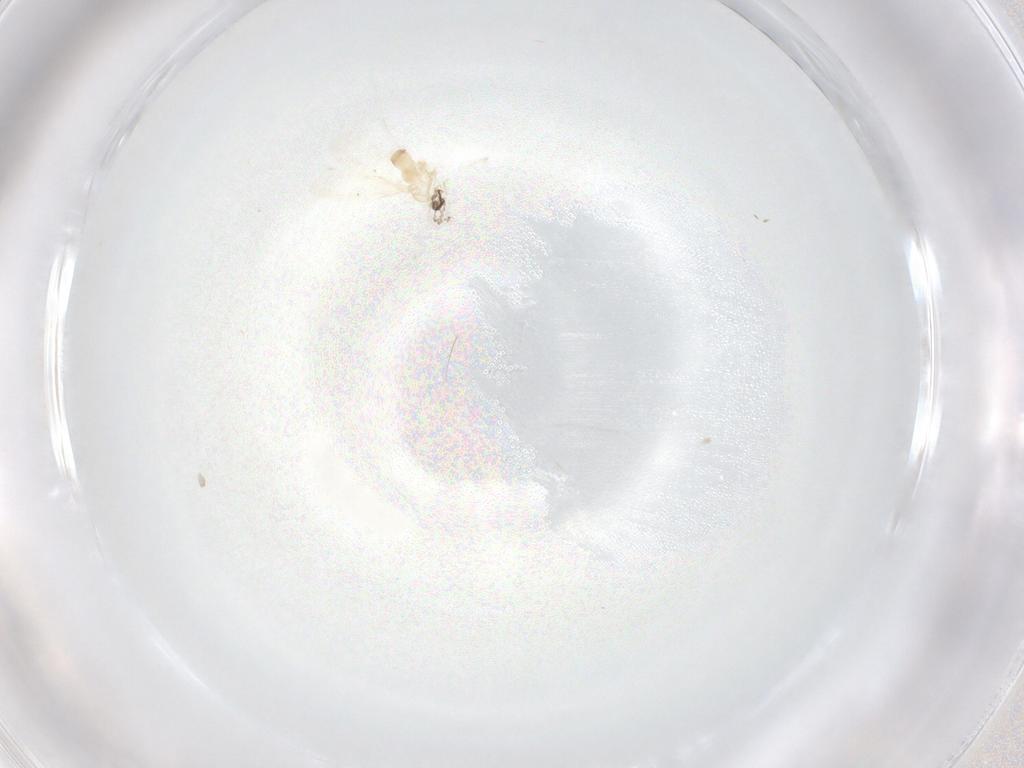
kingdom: Animalia
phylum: Arthropoda
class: Insecta
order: Diptera
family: Cecidomyiidae
